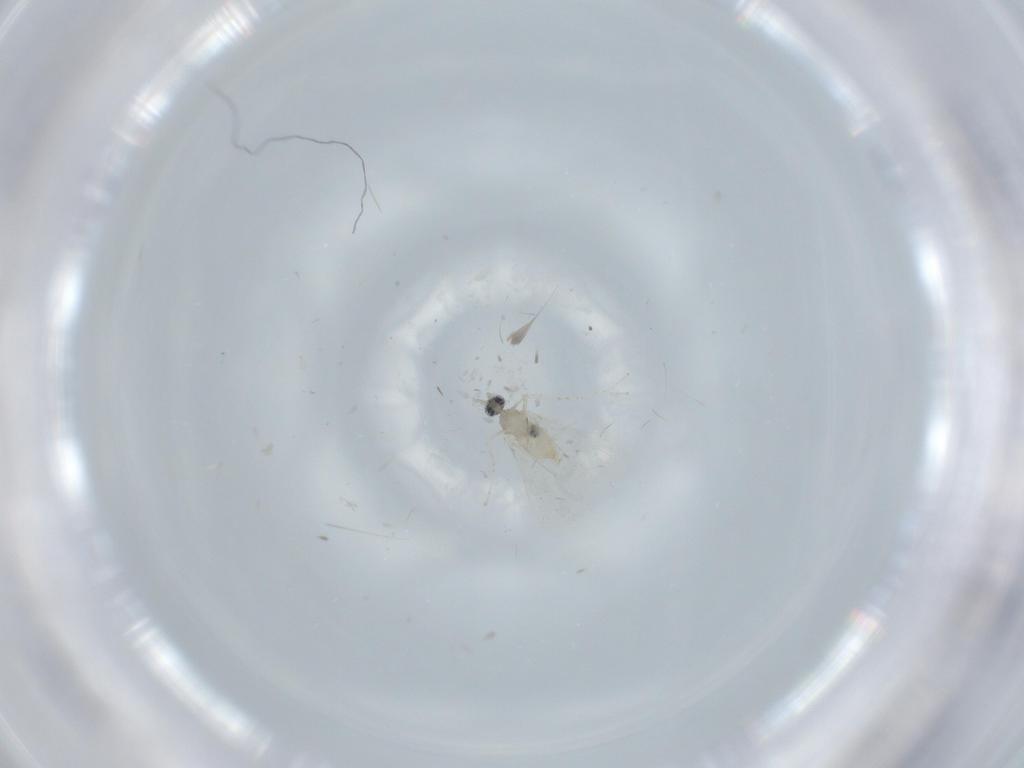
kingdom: Animalia
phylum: Arthropoda
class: Insecta
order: Diptera
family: Cecidomyiidae
